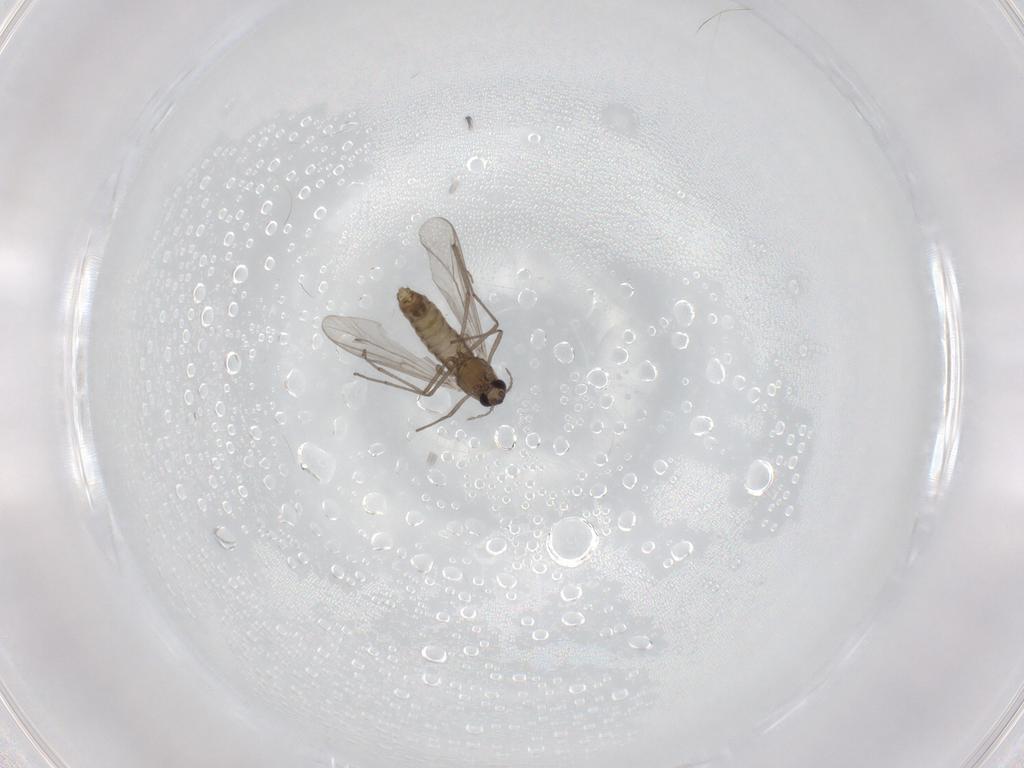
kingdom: Animalia
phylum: Arthropoda
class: Insecta
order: Diptera
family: Chironomidae
